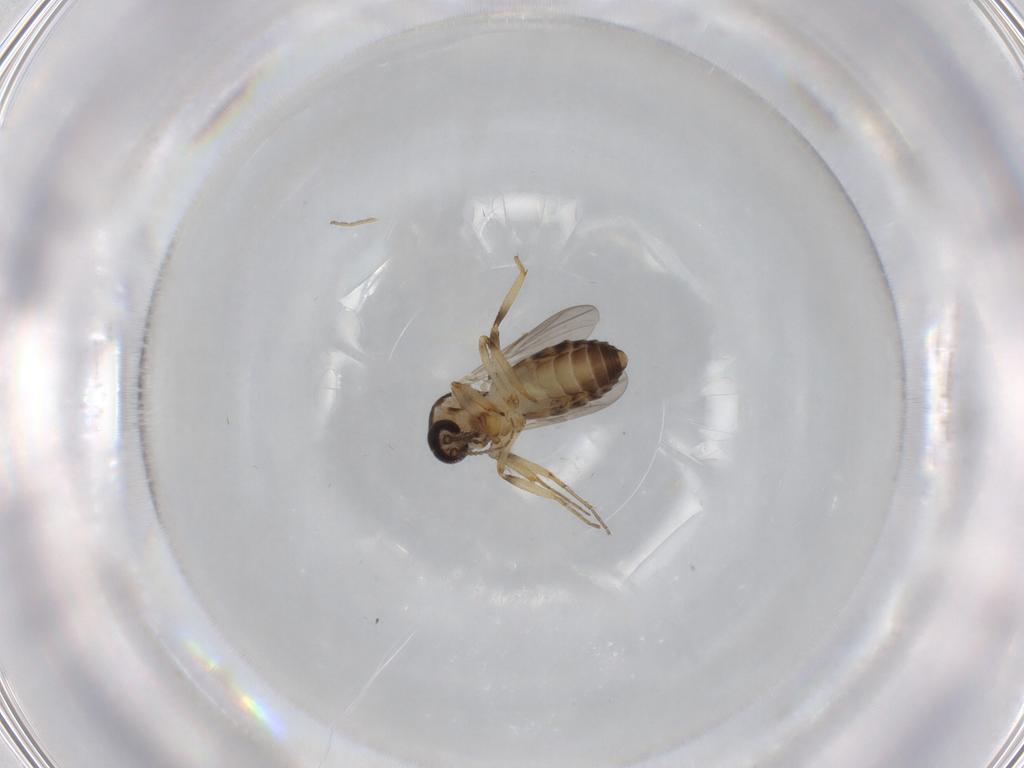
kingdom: Animalia
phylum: Arthropoda
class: Insecta
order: Diptera
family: Ceratopogonidae
